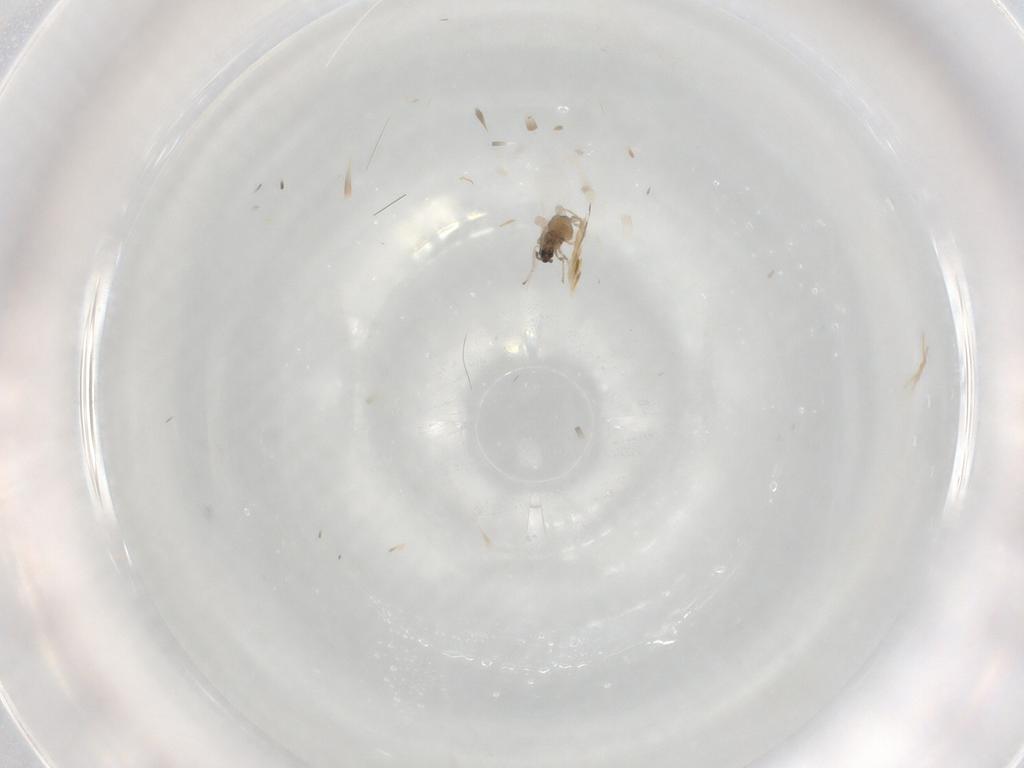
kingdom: Animalia
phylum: Arthropoda
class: Insecta
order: Diptera
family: Cecidomyiidae
